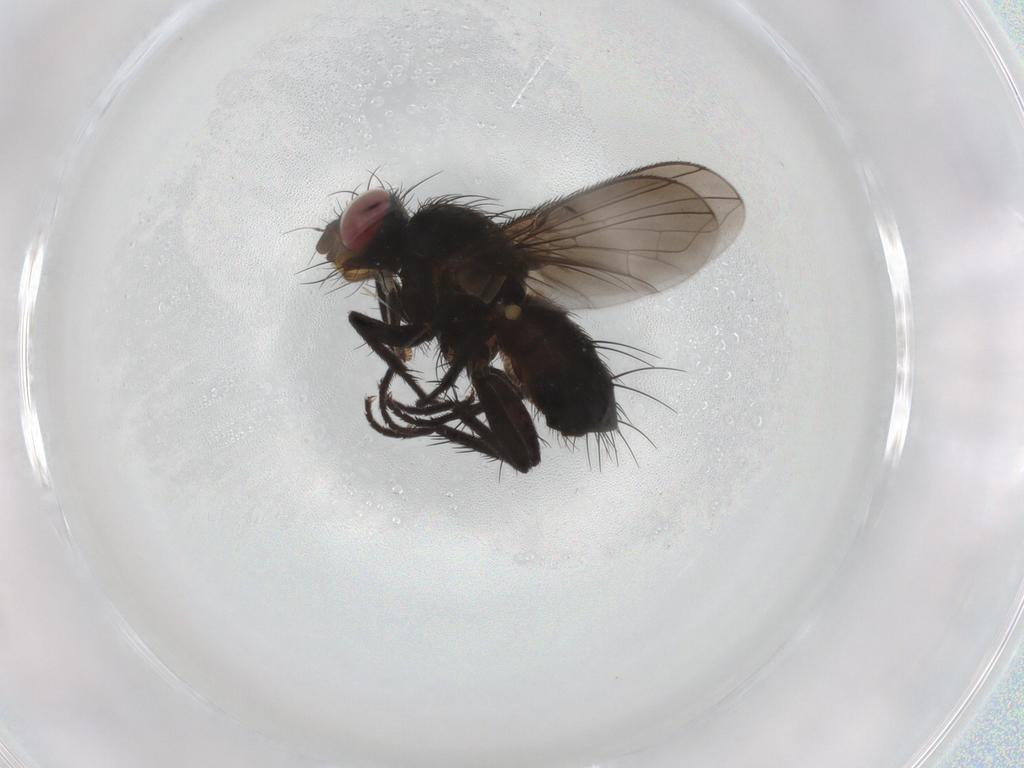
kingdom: Animalia
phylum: Arthropoda
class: Insecta
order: Diptera
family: Calliphoridae
